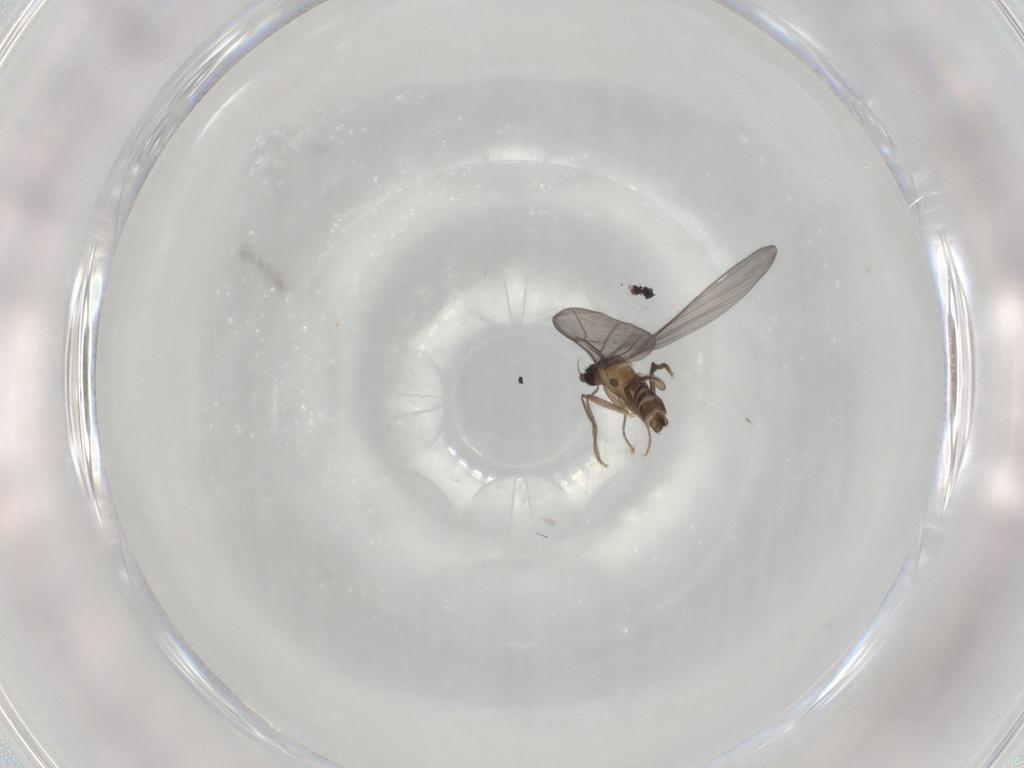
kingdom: Animalia
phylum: Arthropoda
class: Insecta
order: Diptera
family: Phoridae
